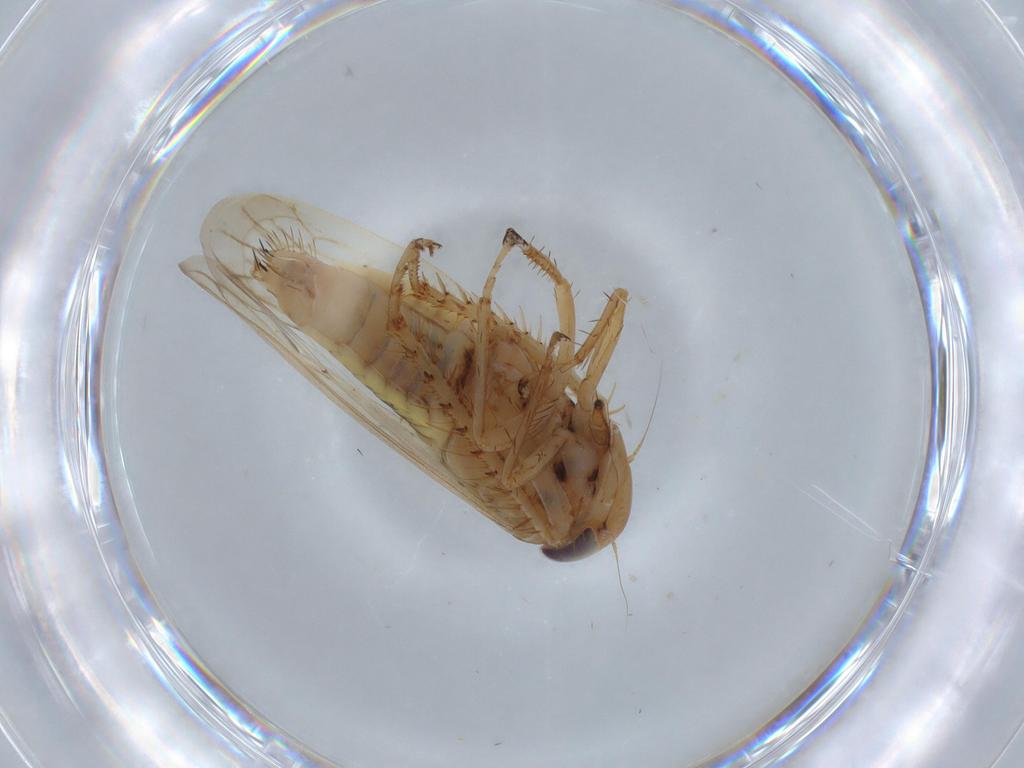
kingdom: Animalia
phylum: Arthropoda
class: Insecta
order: Hemiptera
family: Cicadellidae
